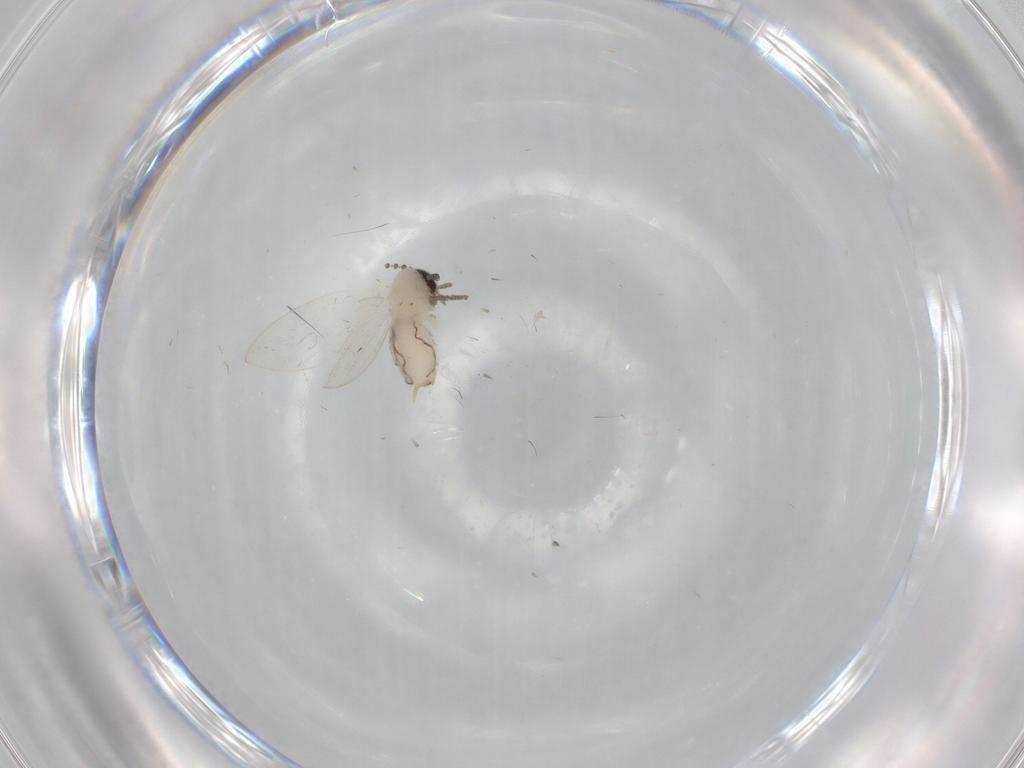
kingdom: Animalia
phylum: Arthropoda
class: Insecta
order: Diptera
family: Psychodidae
